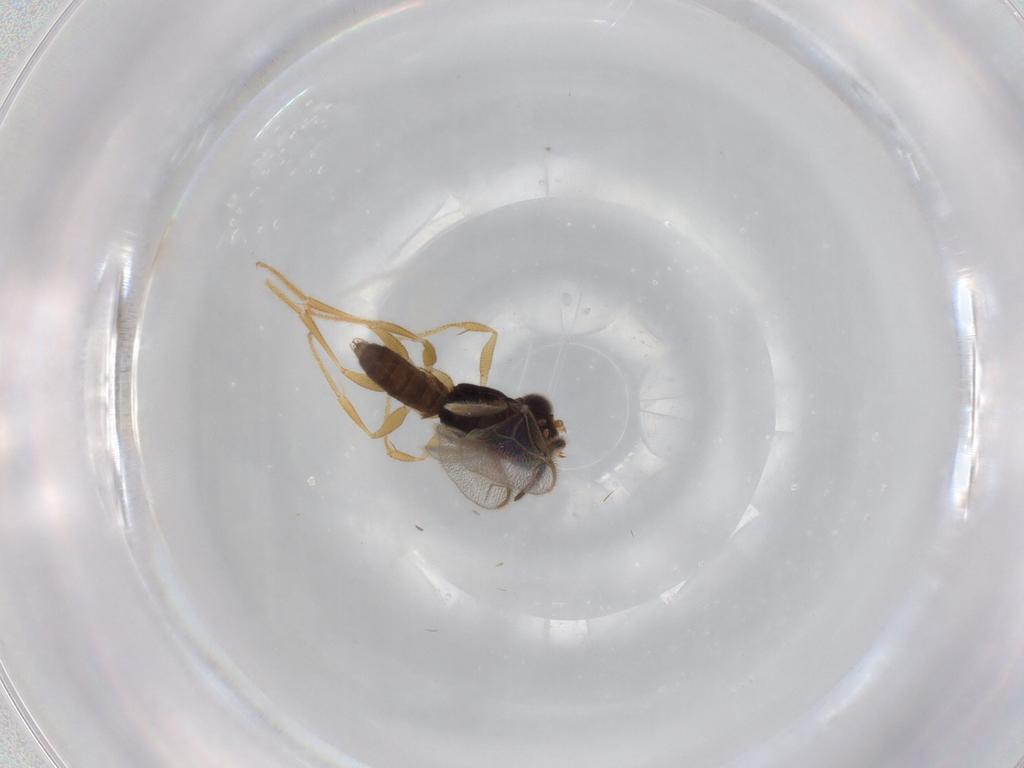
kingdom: Animalia
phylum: Arthropoda
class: Insecta
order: Hymenoptera
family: Dryinidae
